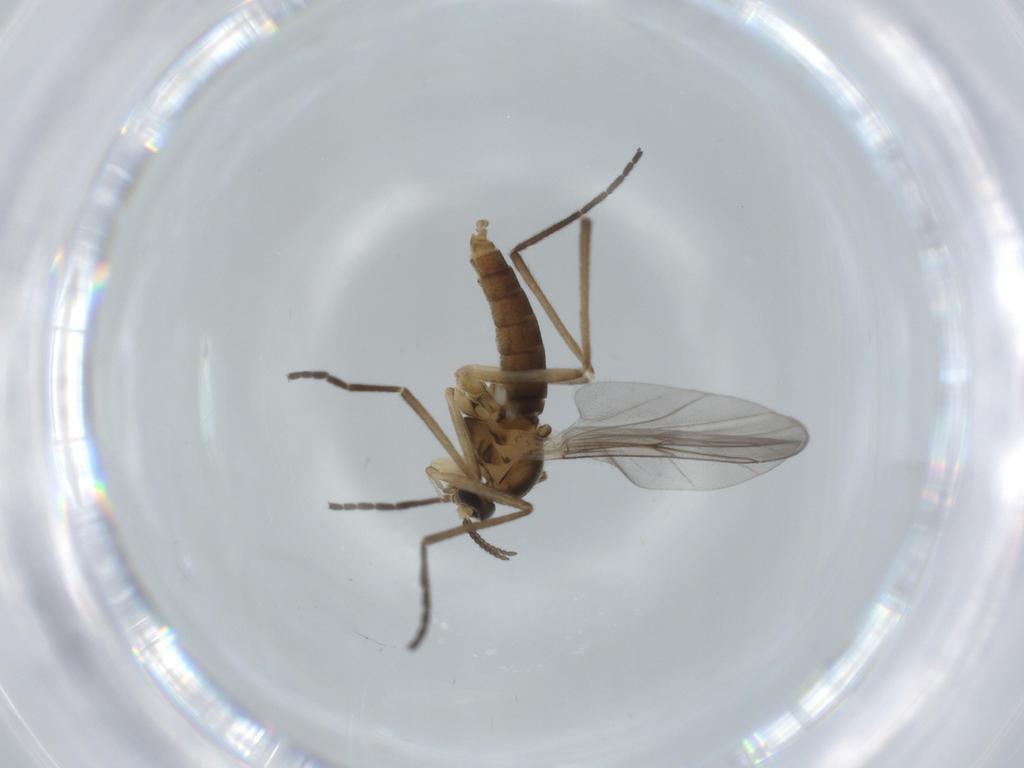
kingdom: Animalia
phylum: Arthropoda
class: Insecta
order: Diptera
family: Cecidomyiidae
